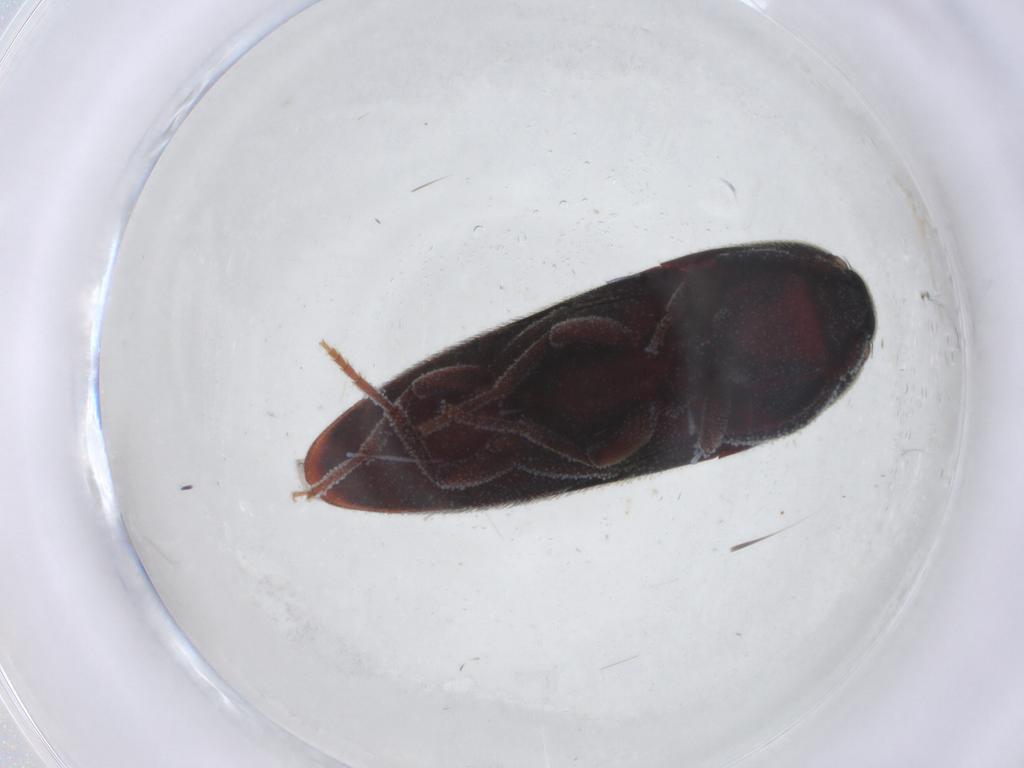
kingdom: Animalia
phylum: Arthropoda
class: Insecta
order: Coleoptera
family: Eucnemidae
